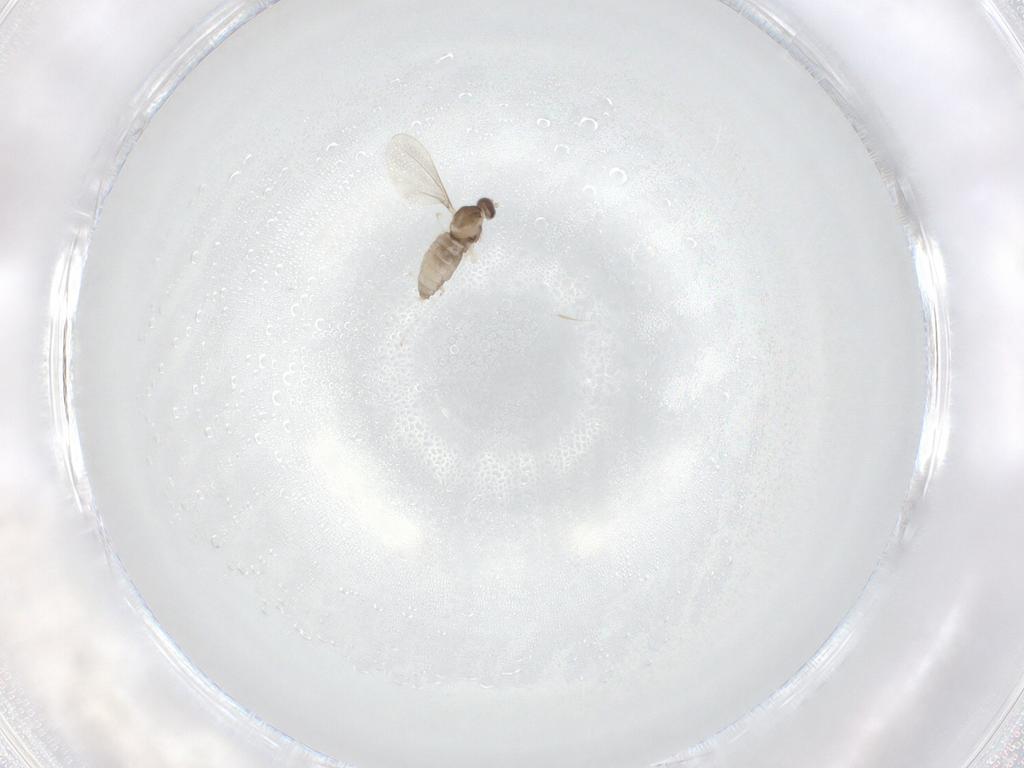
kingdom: Animalia
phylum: Arthropoda
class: Insecta
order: Diptera
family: Cecidomyiidae
